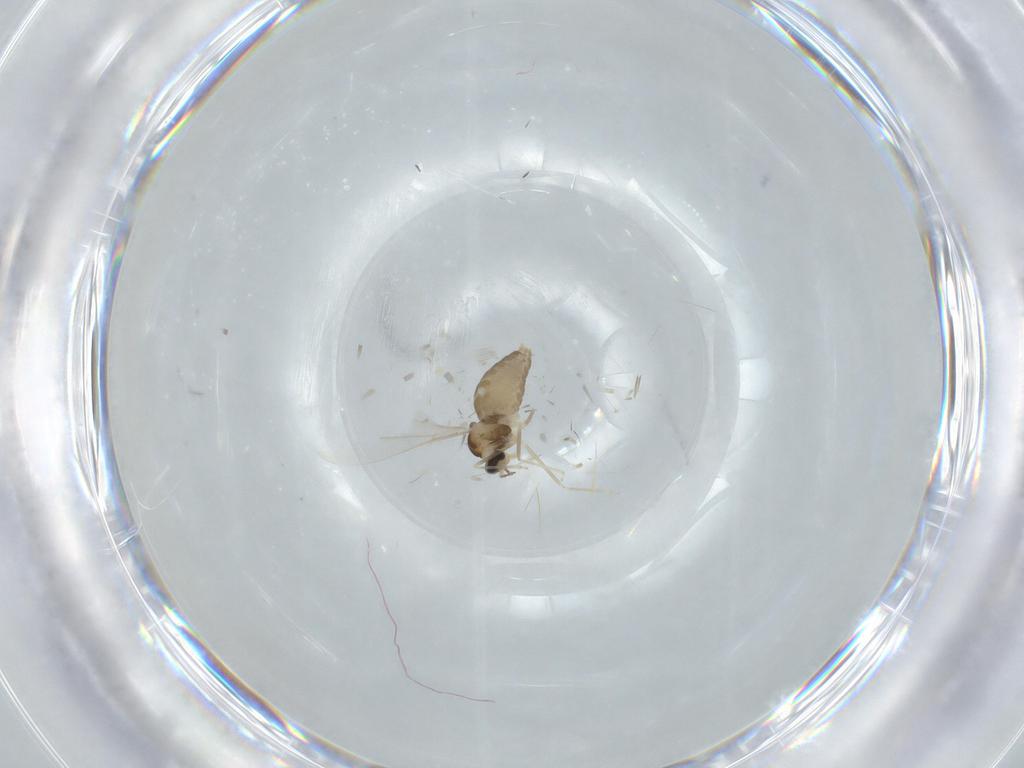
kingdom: Animalia
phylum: Arthropoda
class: Insecta
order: Diptera
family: Cecidomyiidae
